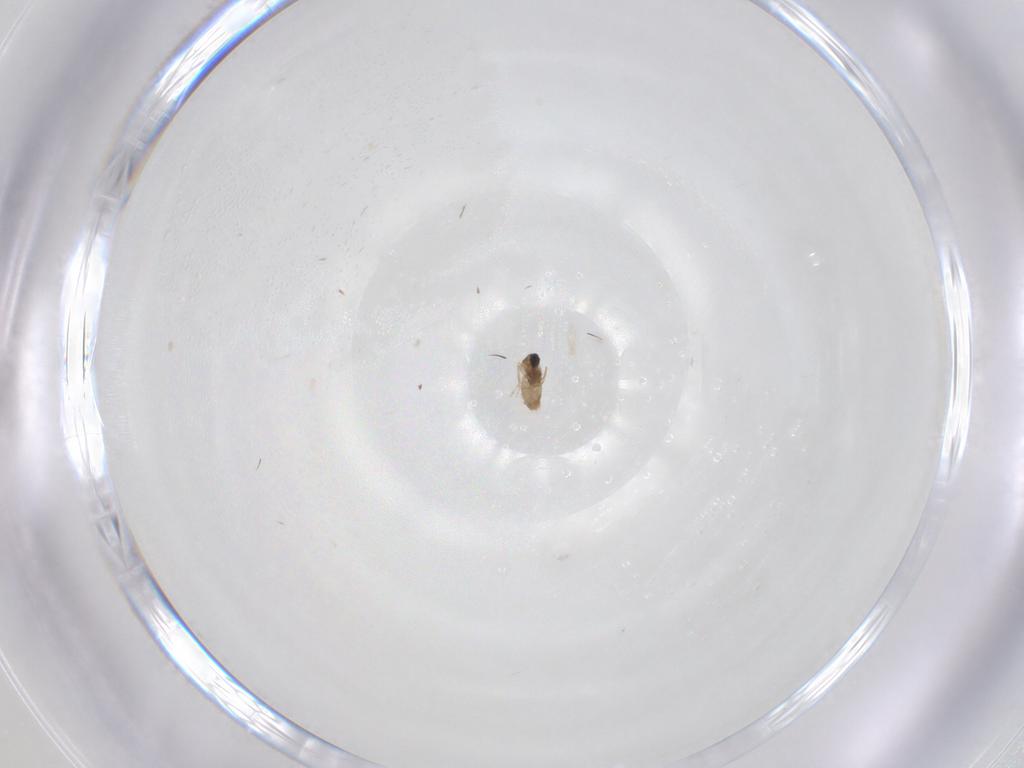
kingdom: Animalia
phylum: Arthropoda
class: Insecta
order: Diptera
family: Cecidomyiidae
